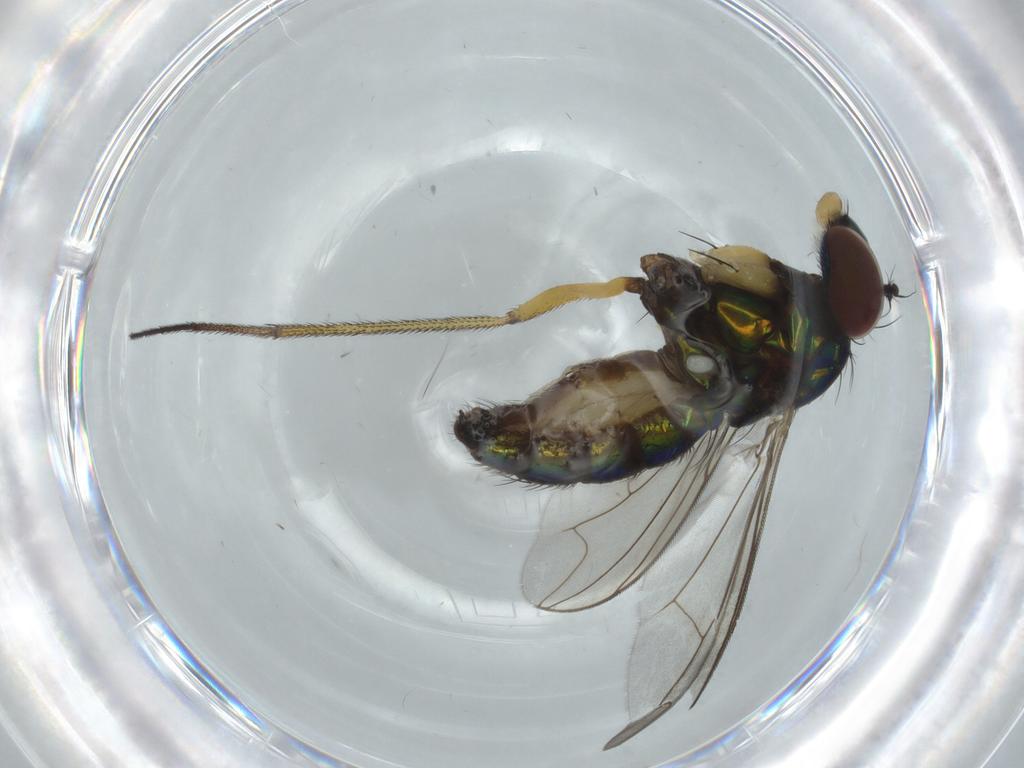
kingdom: Animalia
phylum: Arthropoda
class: Insecta
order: Diptera
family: Dolichopodidae
